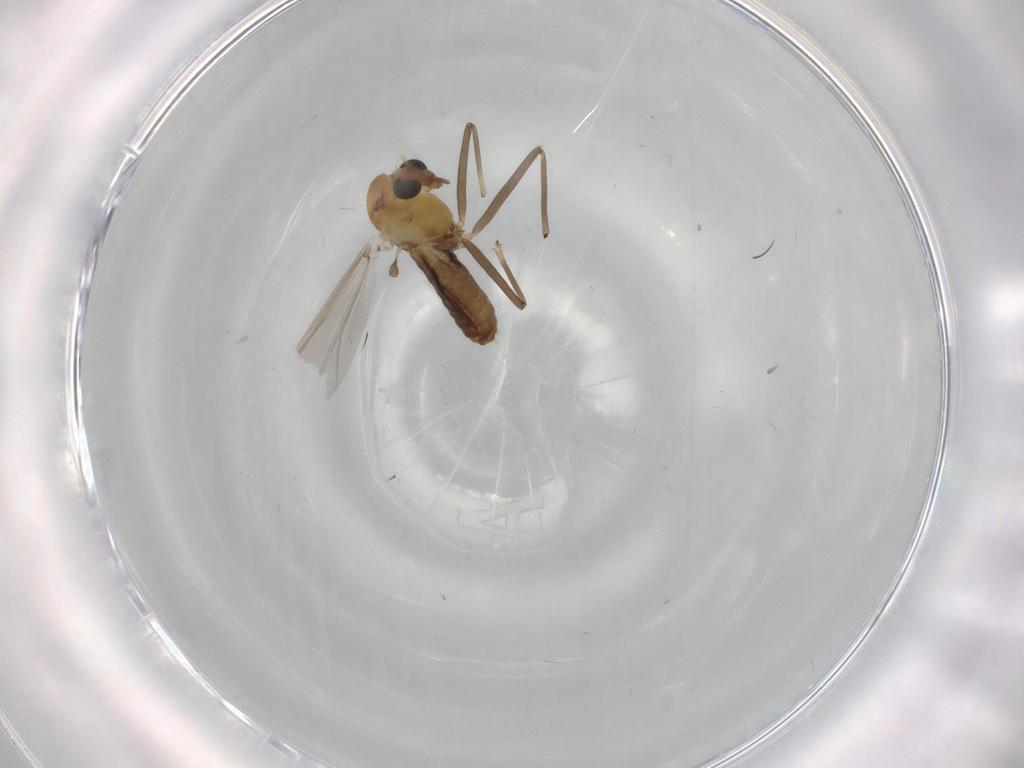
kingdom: Animalia
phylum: Arthropoda
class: Insecta
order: Diptera
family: Chironomidae
